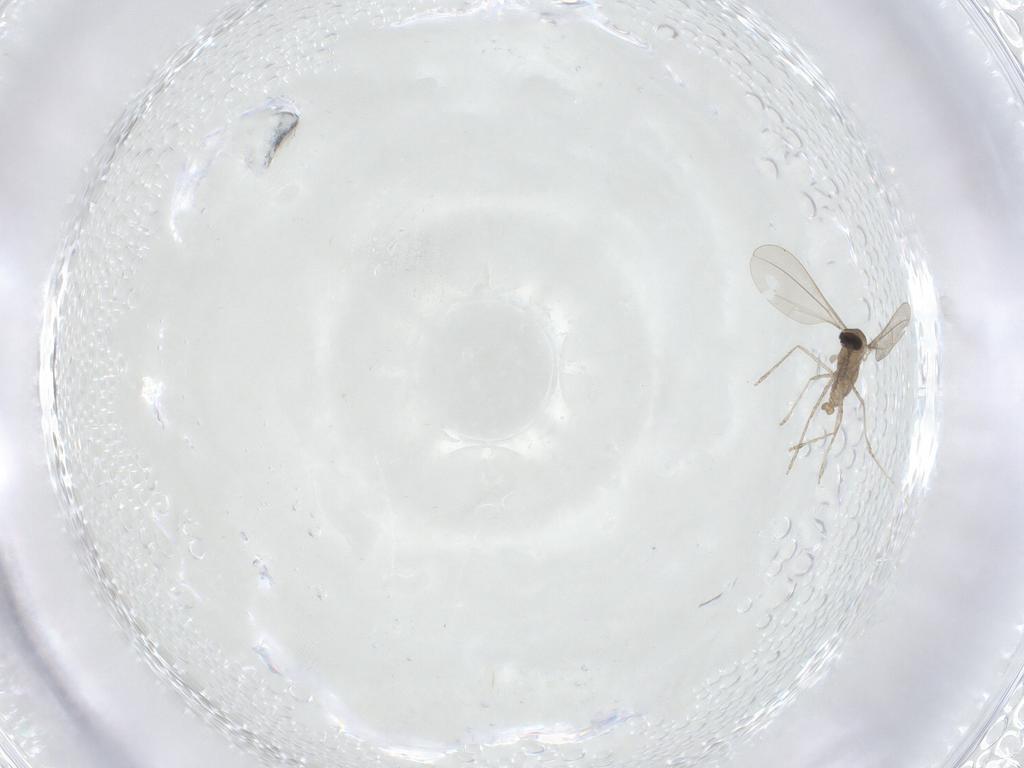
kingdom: Animalia
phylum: Arthropoda
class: Insecta
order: Diptera
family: Cecidomyiidae
